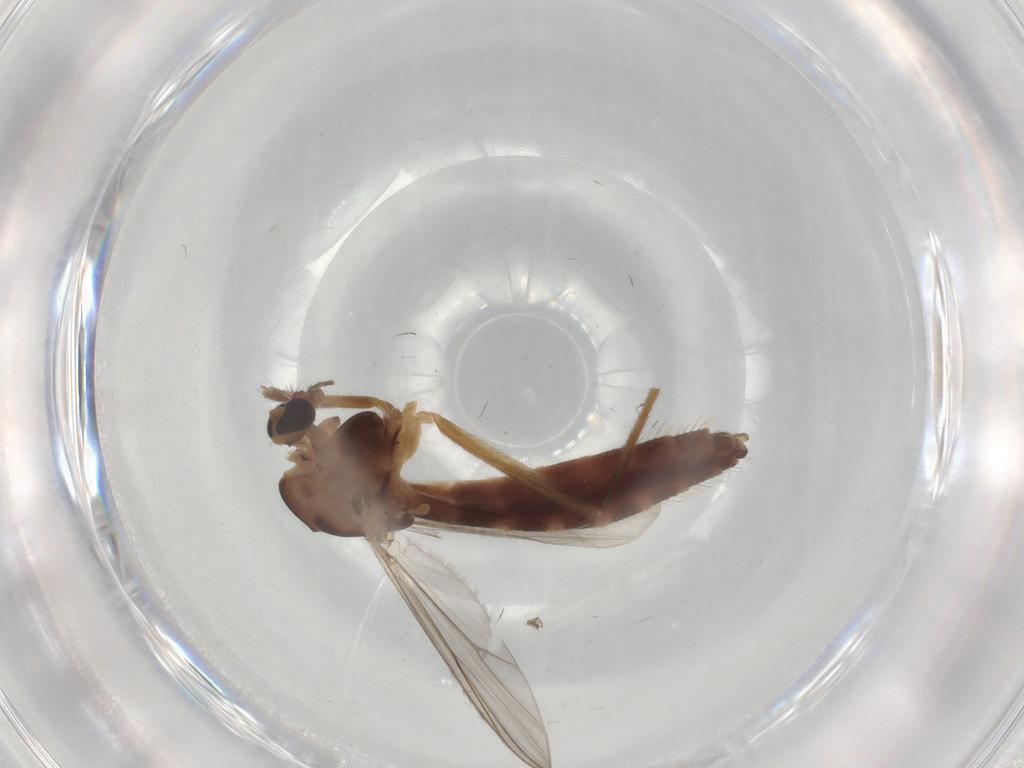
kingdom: Animalia
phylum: Arthropoda
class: Insecta
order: Diptera
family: Chironomidae
